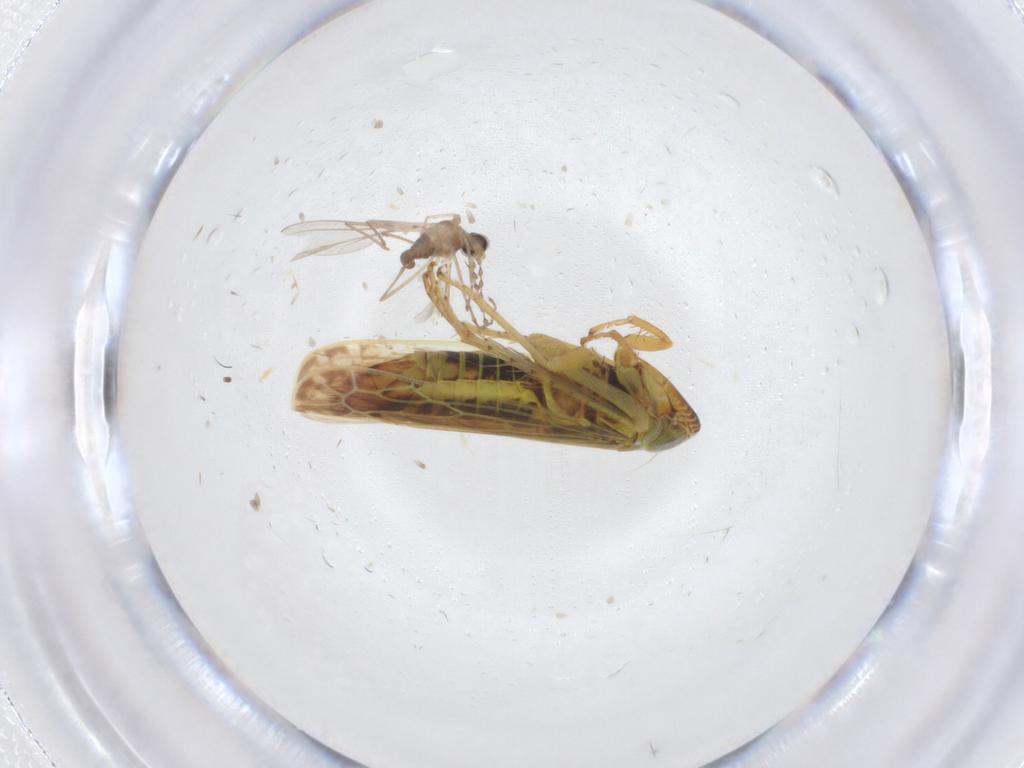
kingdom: Animalia
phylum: Arthropoda
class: Insecta
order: Diptera
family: Cecidomyiidae
